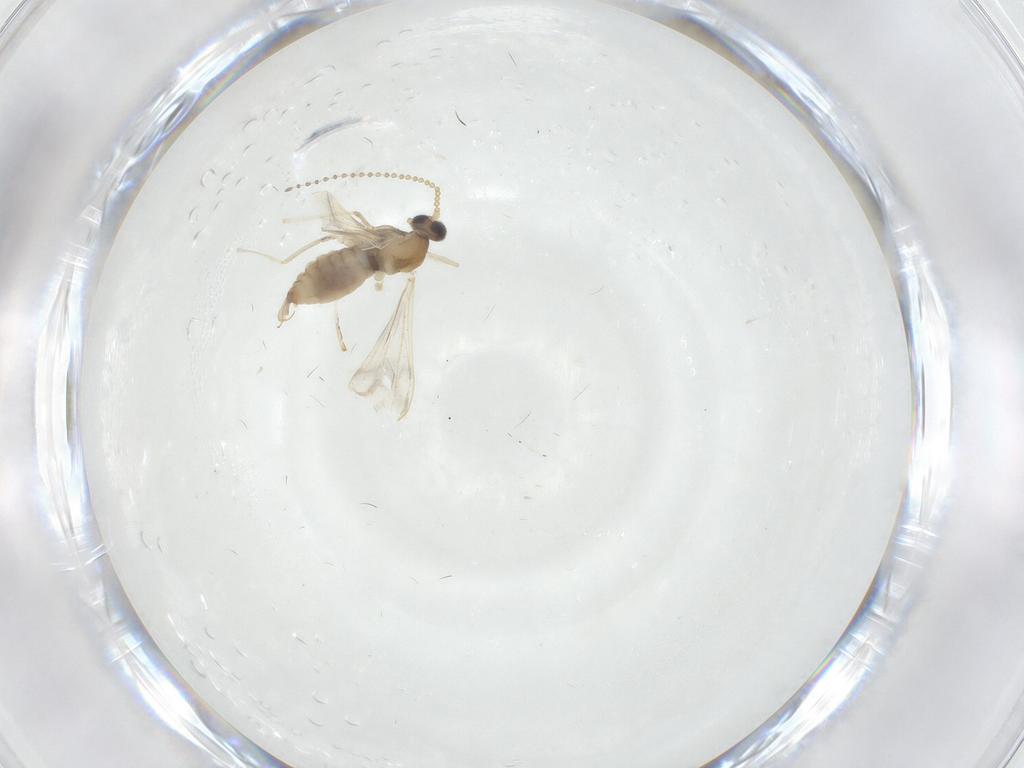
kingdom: Animalia
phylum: Arthropoda
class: Insecta
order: Diptera
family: Cecidomyiidae
